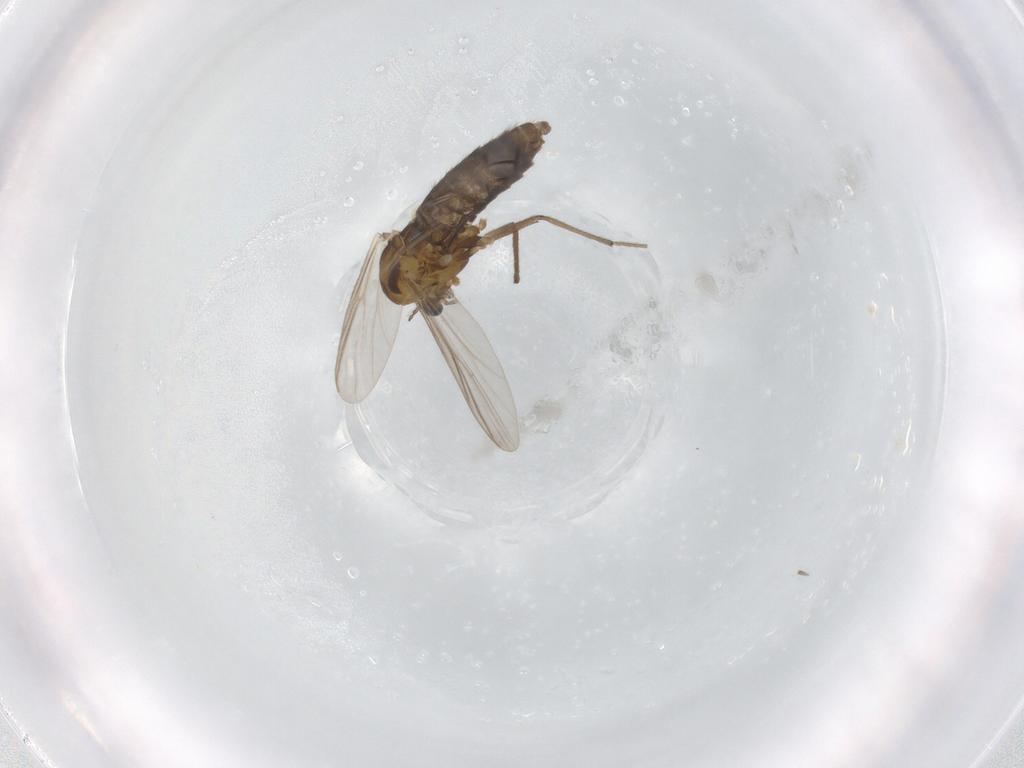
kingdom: Animalia
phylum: Arthropoda
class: Insecta
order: Diptera
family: Chironomidae
